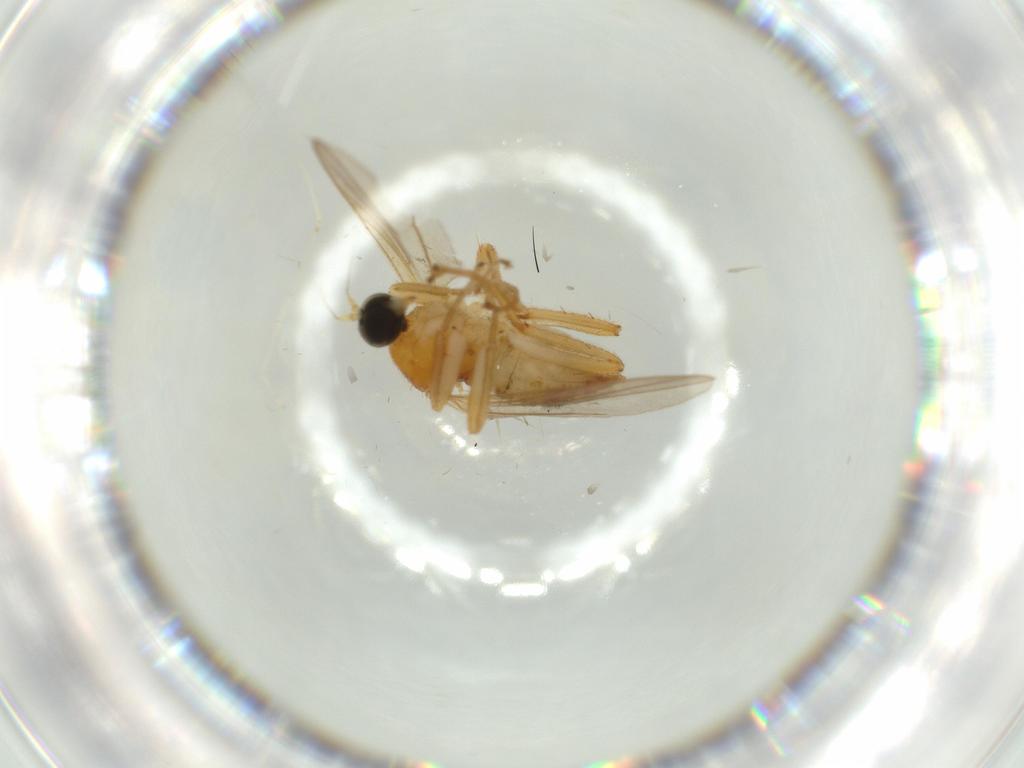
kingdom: Animalia
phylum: Arthropoda
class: Insecta
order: Diptera
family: Hybotidae
